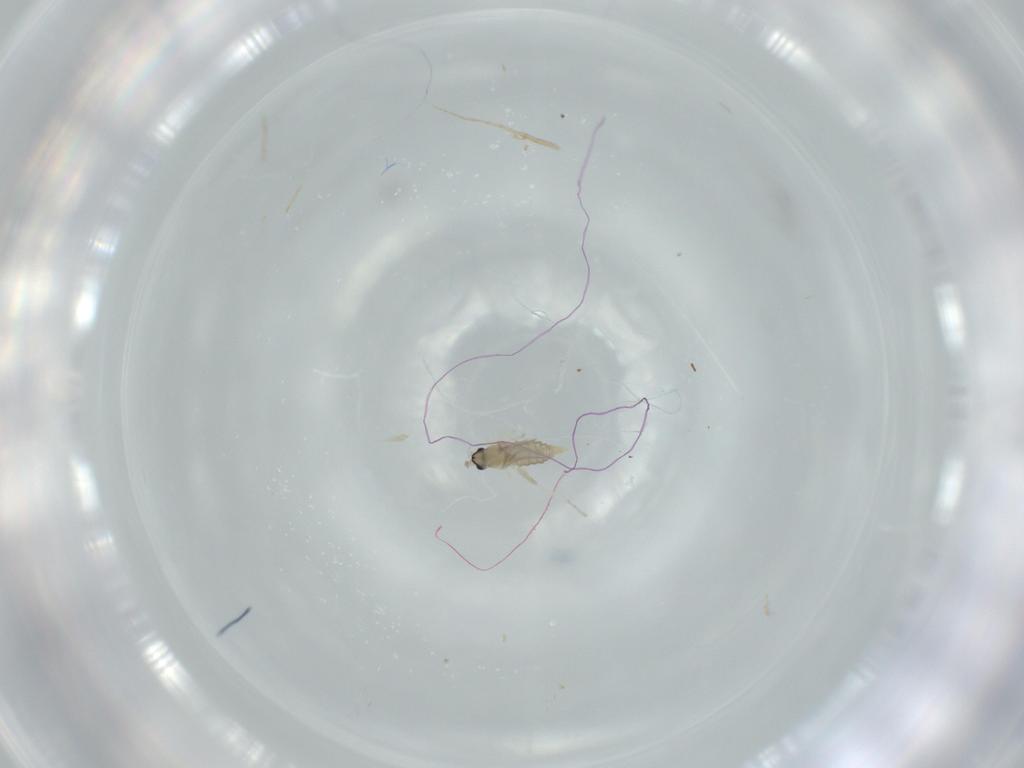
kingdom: Animalia
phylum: Arthropoda
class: Insecta
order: Diptera
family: Cecidomyiidae
